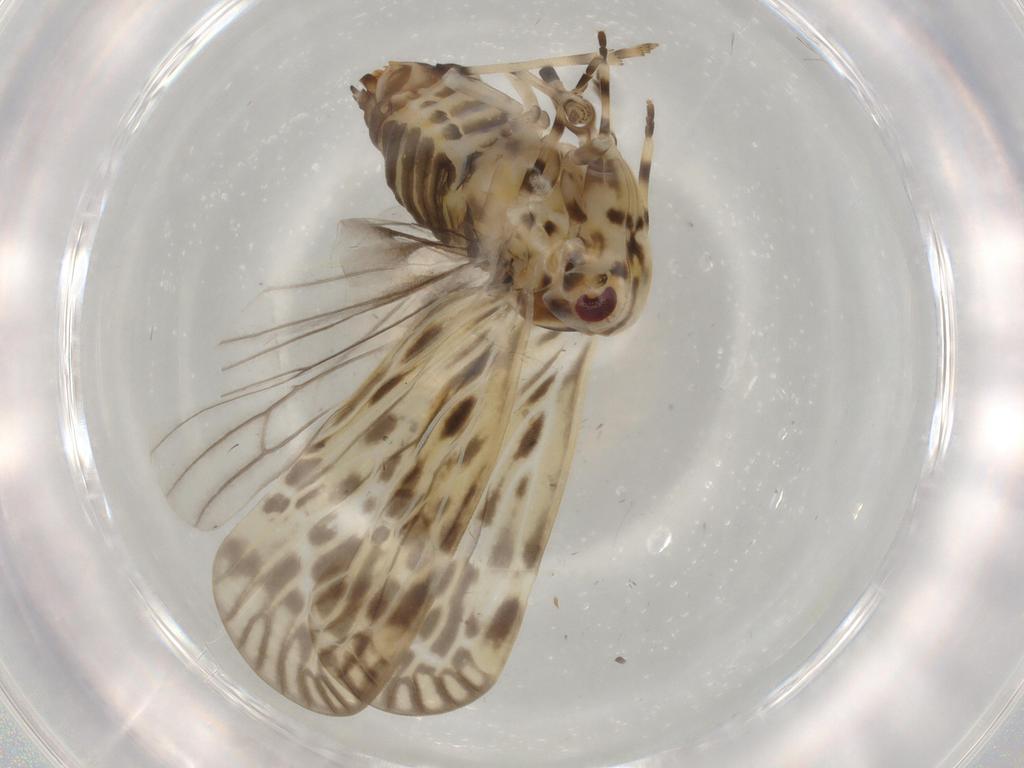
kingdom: Animalia
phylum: Arthropoda
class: Insecta
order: Hemiptera
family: Derbidae
